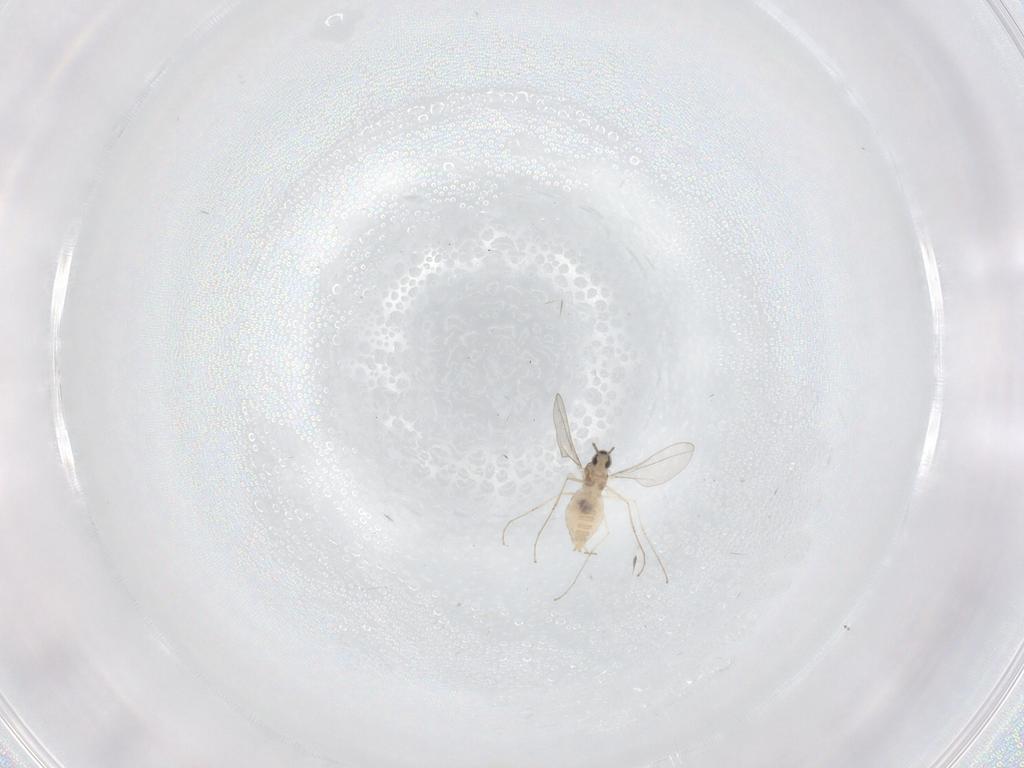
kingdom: Animalia
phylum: Arthropoda
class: Insecta
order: Diptera
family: Cecidomyiidae
